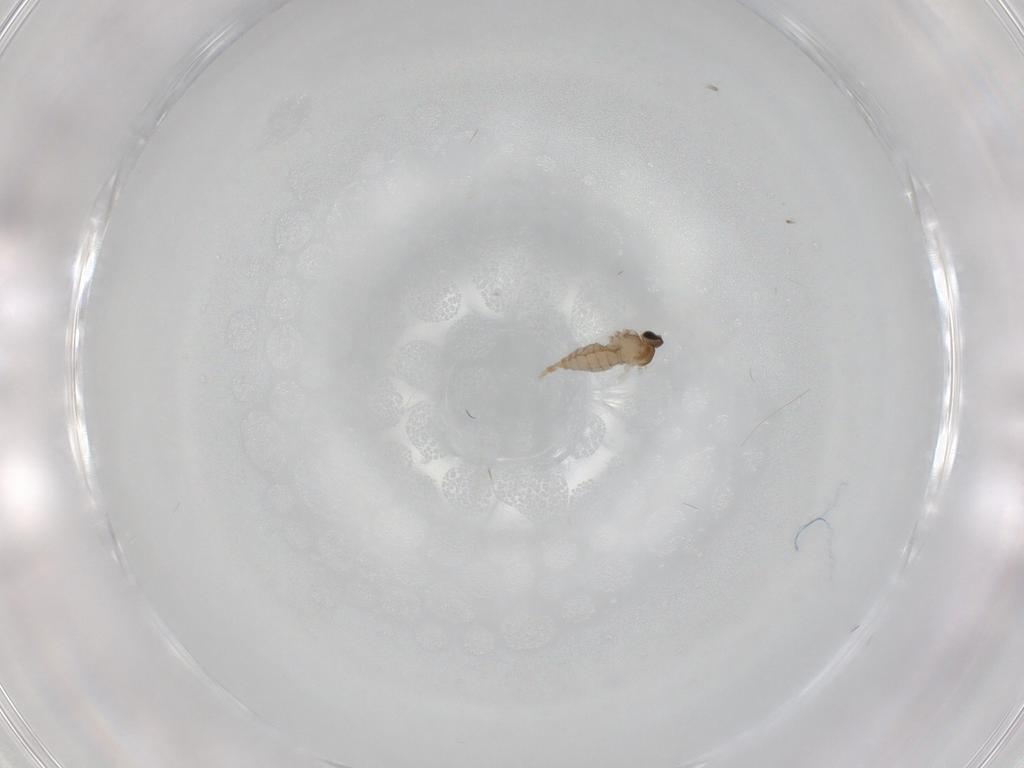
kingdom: Animalia
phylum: Arthropoda
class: Insecta
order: Diptera
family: Cecidomyiidae
